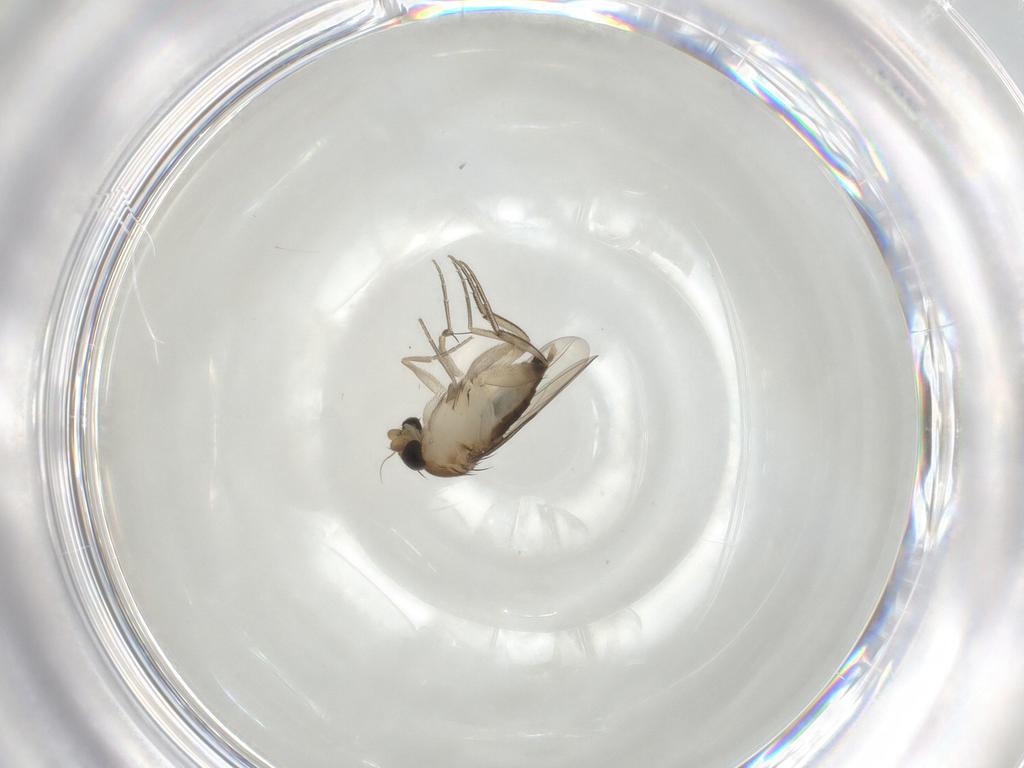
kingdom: Animalia
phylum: Arthropoda
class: Insecta
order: Diptera
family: Phoridae
